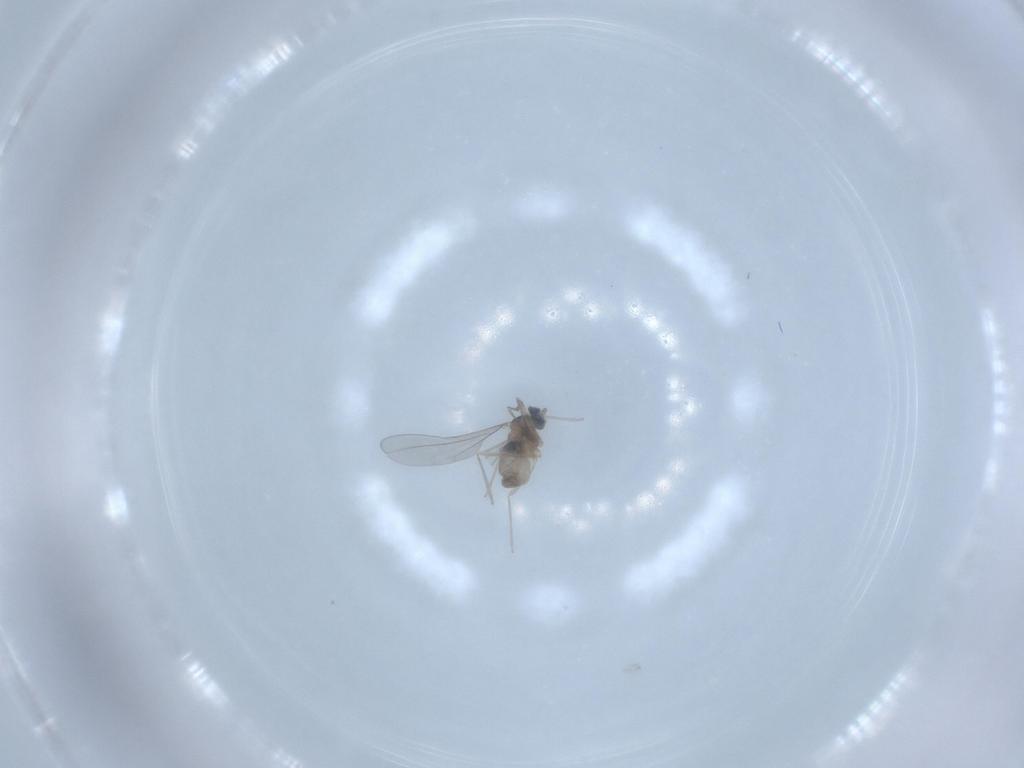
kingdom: Animalia
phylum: Arthropoda
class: Insecta
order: Diptera
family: Cecidomyiidae
